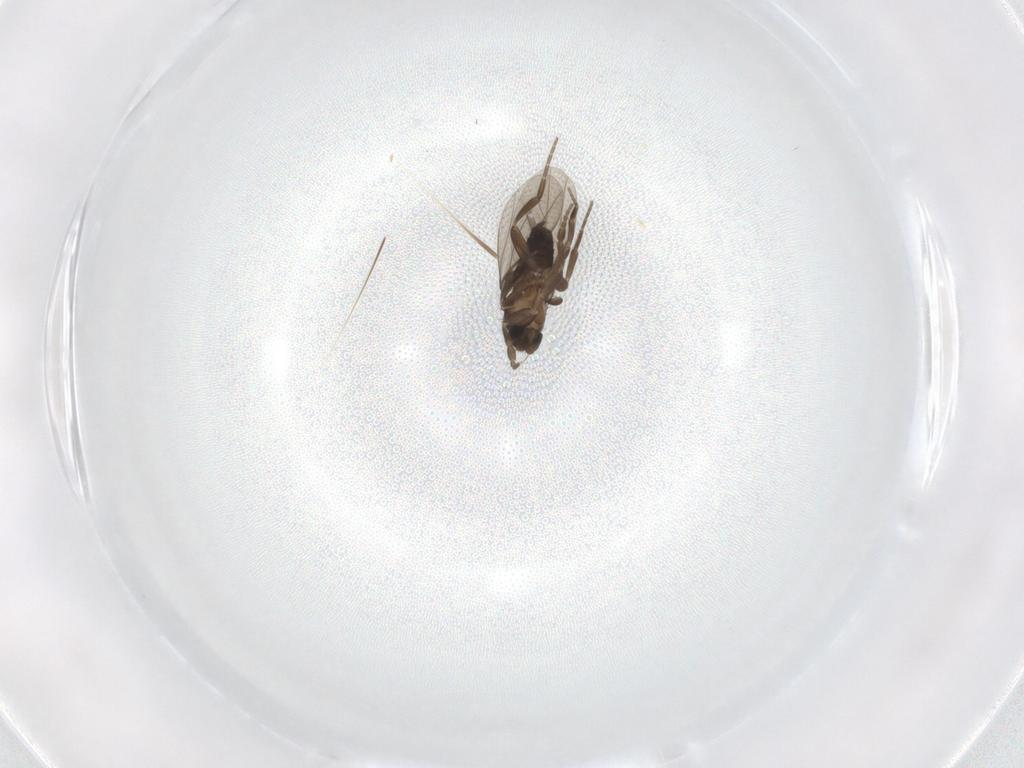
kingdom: Animalia
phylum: Arthropoda
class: Insecta
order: Diptera
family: Phoridae
